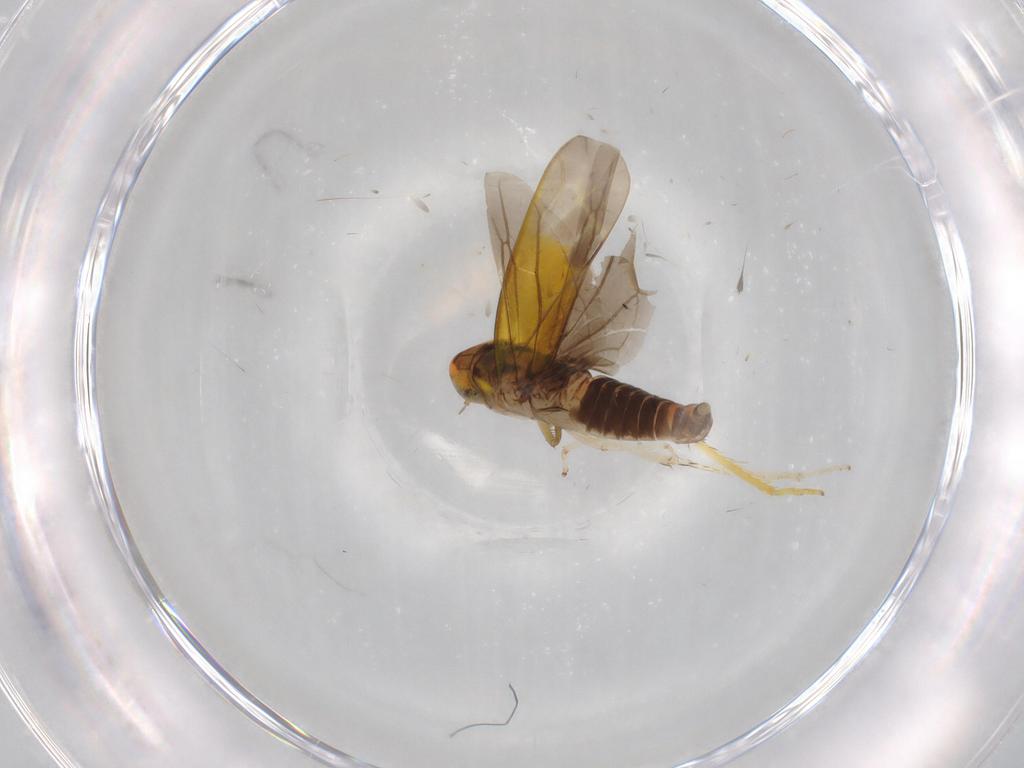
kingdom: Animalia
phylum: Arthropoda
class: Insecta
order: Hemiptera
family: Cicadellidae
